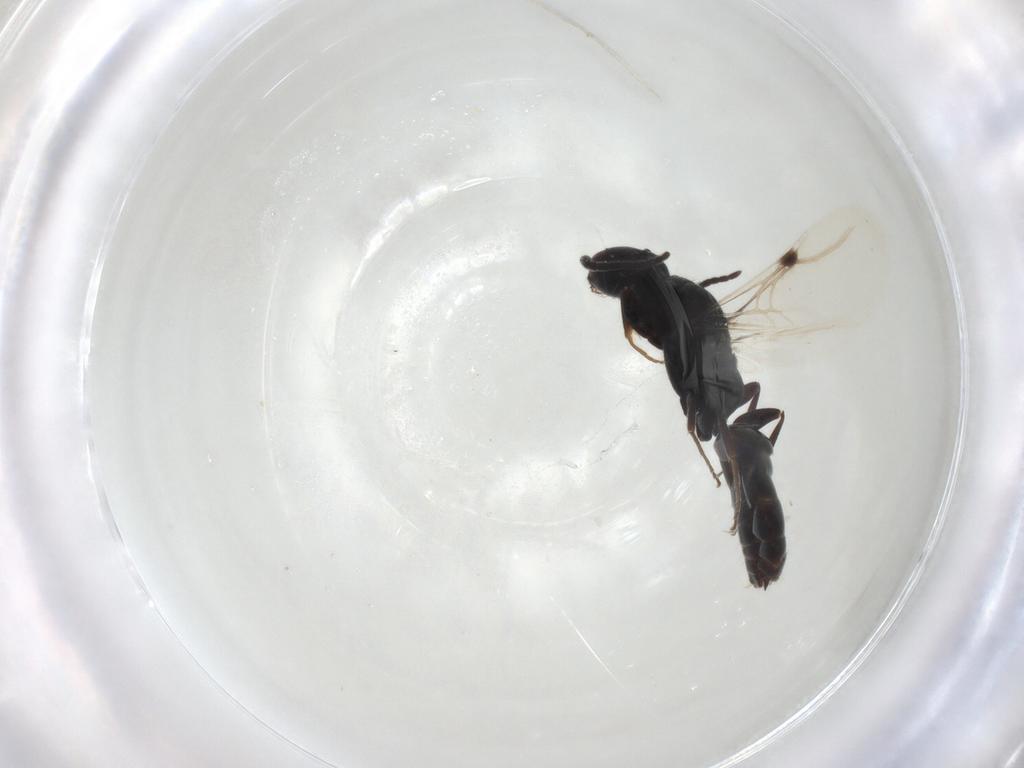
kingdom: Animalia
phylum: Arthropoda
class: Insecta
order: Hymenoptera
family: Bethylidae
